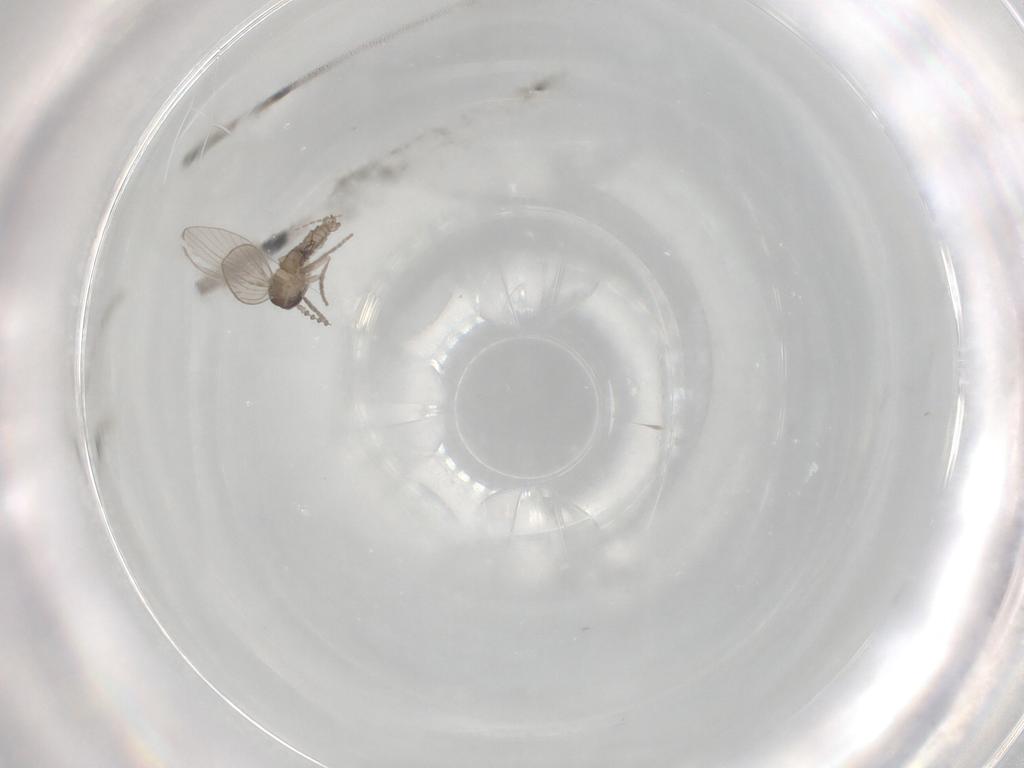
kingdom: Animalia
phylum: Arthropoda
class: Insecta
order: Diptera
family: Psychodidae
